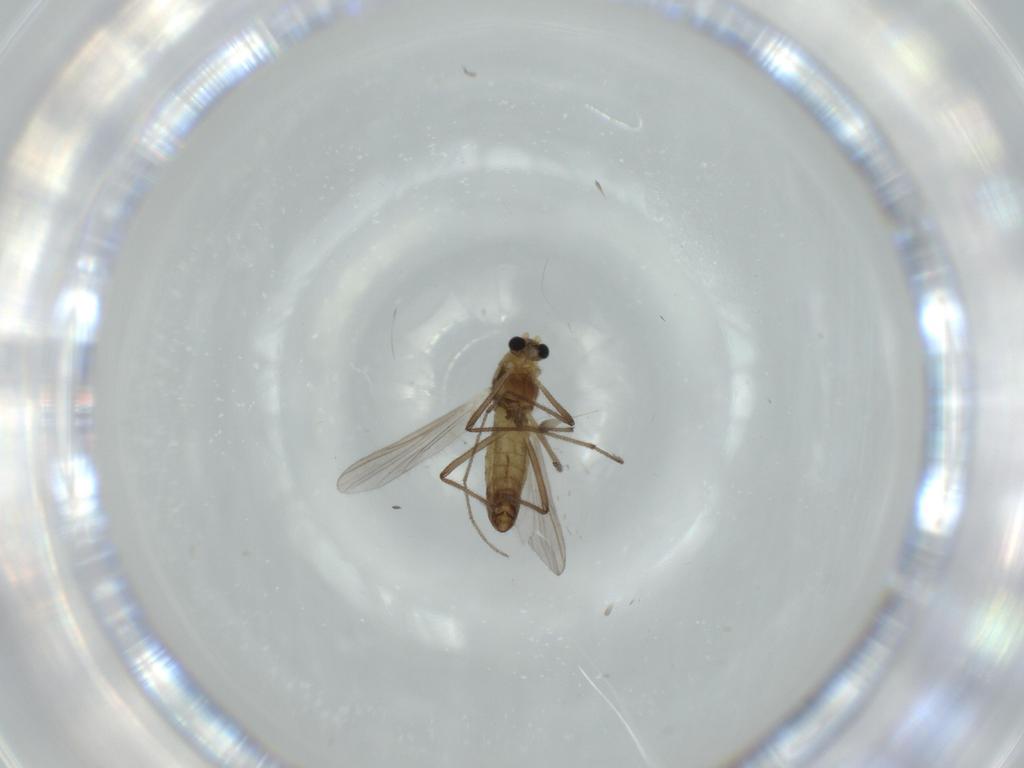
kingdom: Animalia
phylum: Arthropoda
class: Insecta
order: Diptera
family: Chironomidae
